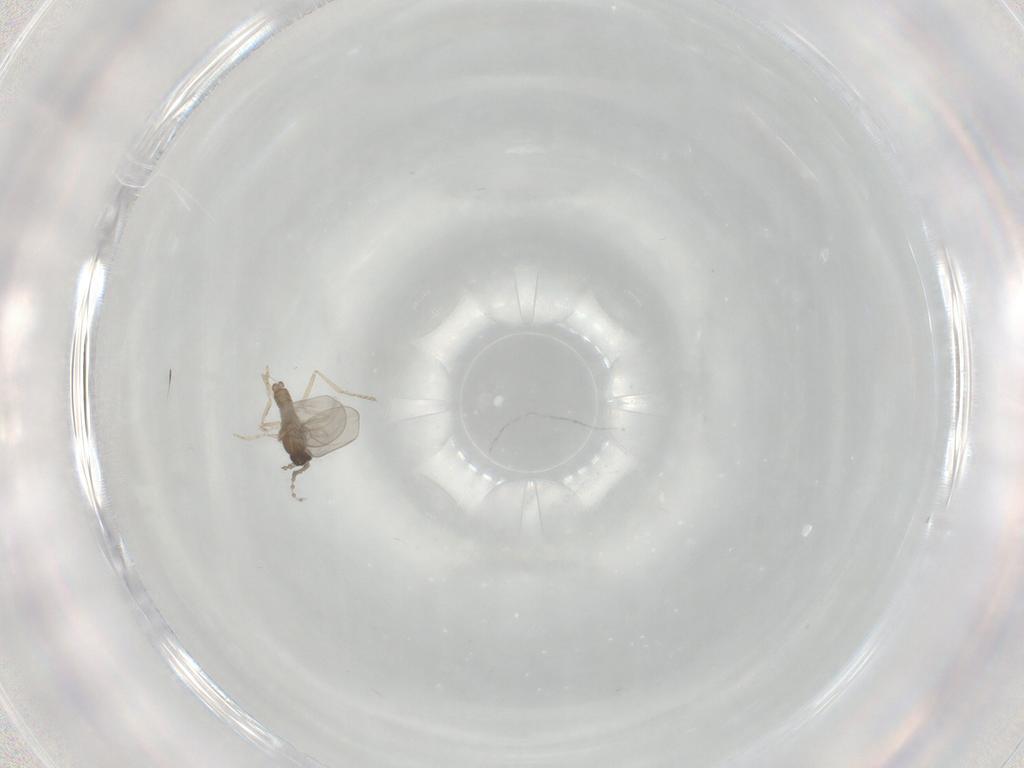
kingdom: Animalia
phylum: Arthropoda
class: Insecta
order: Diptera
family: Cecidomyiidae
